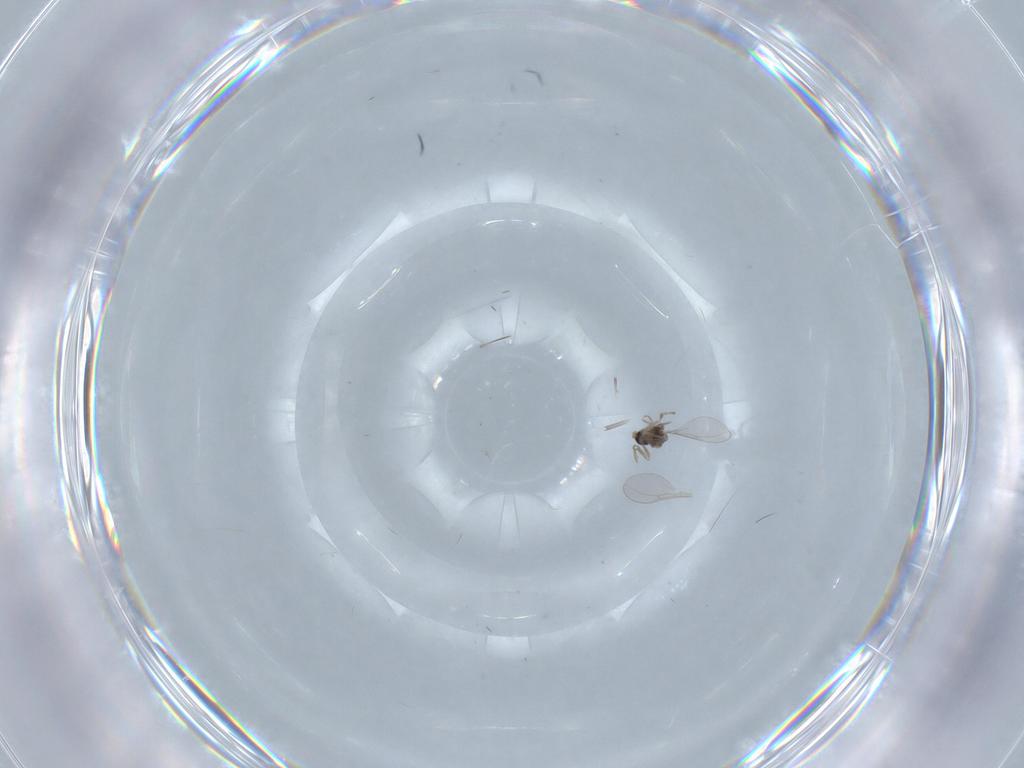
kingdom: Animalia
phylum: Arthropoda
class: Insecta
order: Diptera
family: Cecidomyiidae
